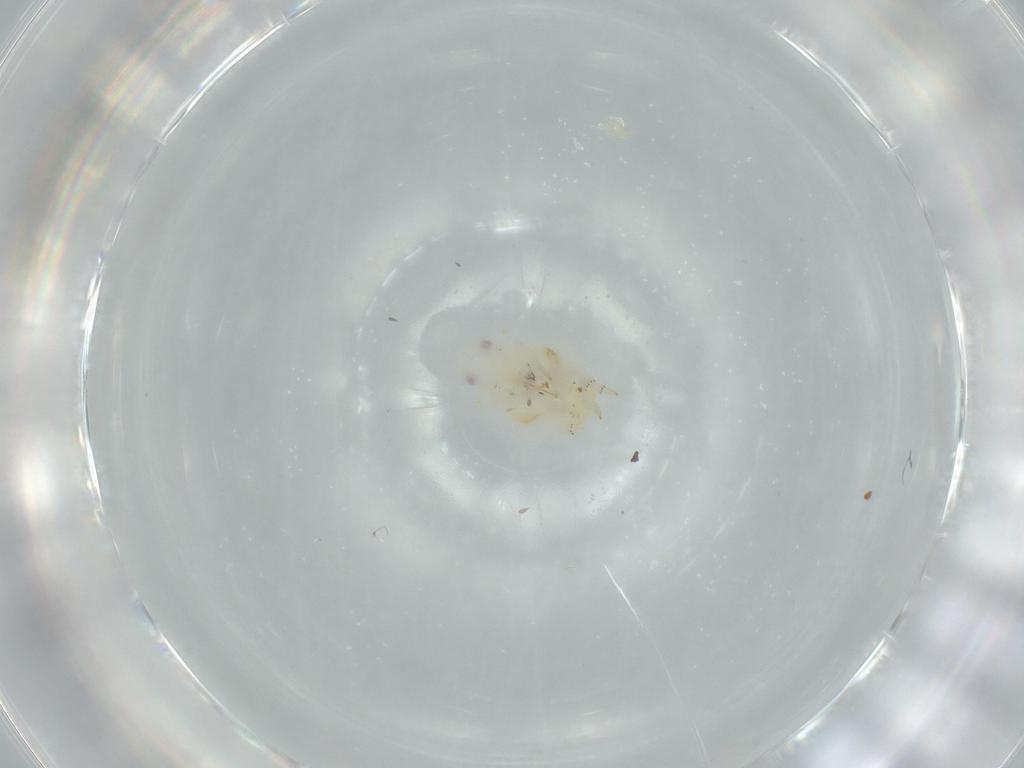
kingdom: Animalia
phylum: Arthropoda
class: Insecta
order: Hemiptera
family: Flatidae
